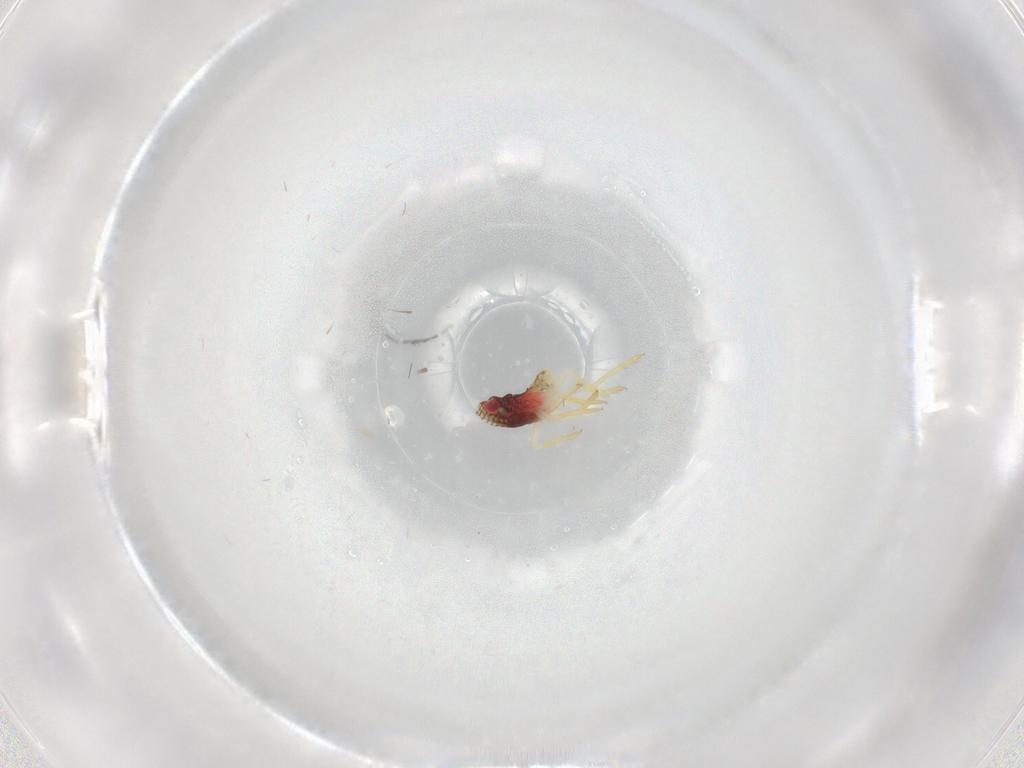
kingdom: Animalia
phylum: Arthropoda
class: Insecta
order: Hemiptera
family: Fulgoroidea_incertae_sedis
